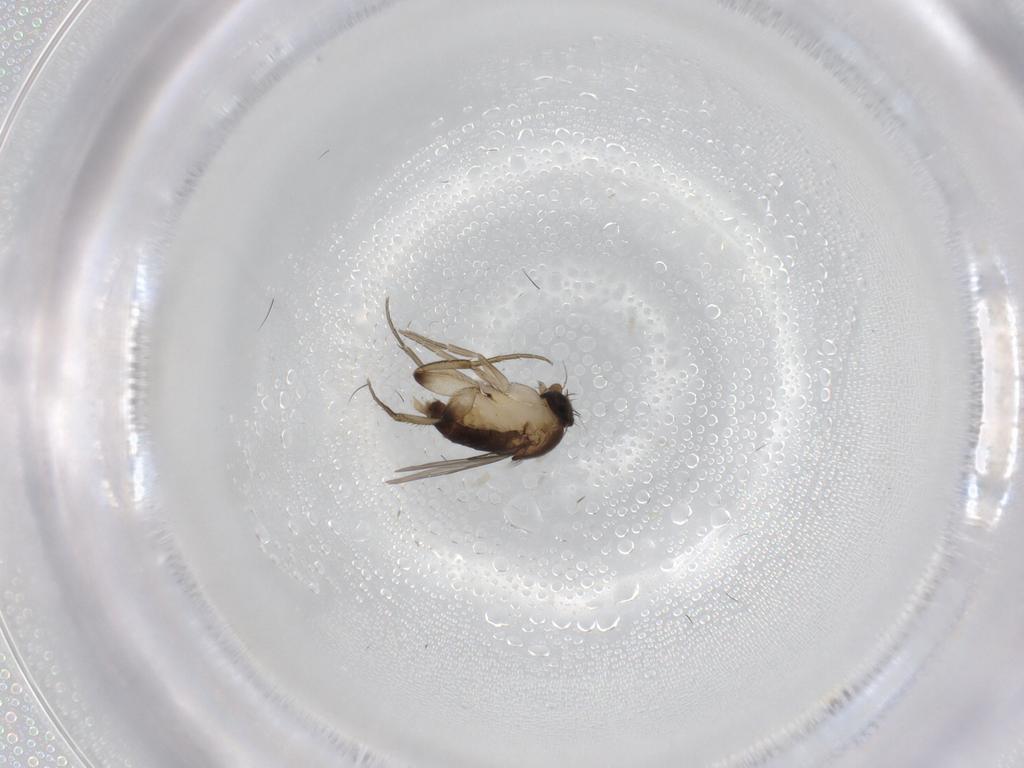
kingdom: Animalia
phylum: Arthropoda
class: Insecta
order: Diptera
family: Phoridae
